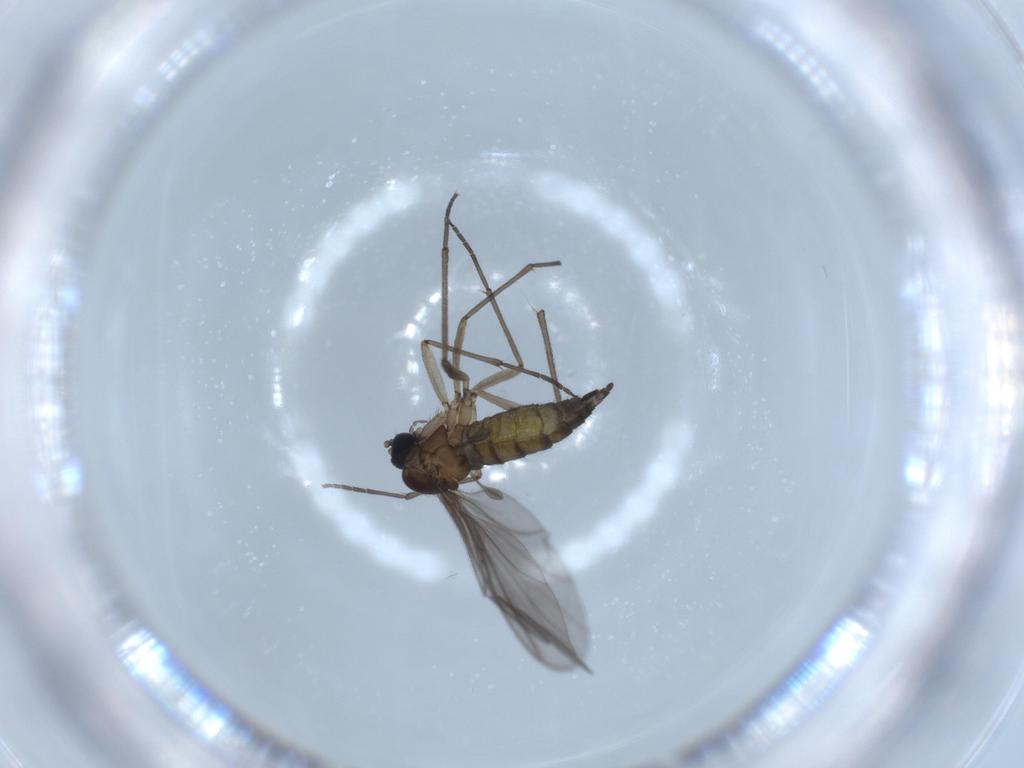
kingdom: Animalia
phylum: Arthropoda
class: Insecta
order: Diptera
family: Sciaridae
